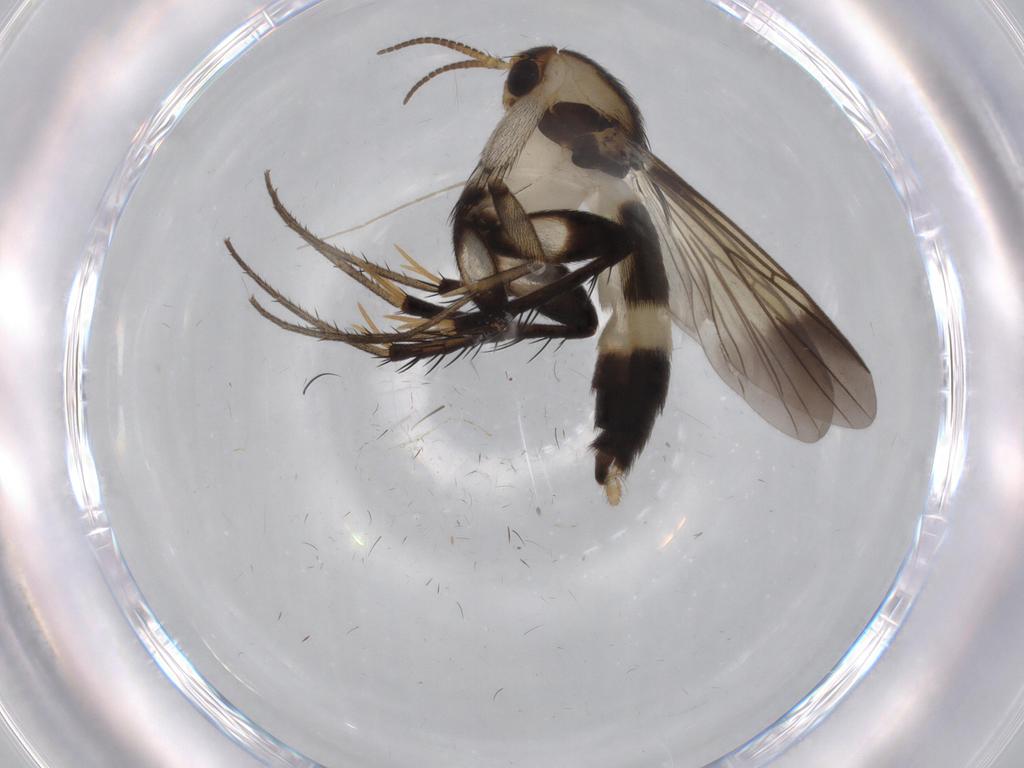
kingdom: Animalia
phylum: Arthropoda
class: Insecta
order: Diptera
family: Mycetophilidae
